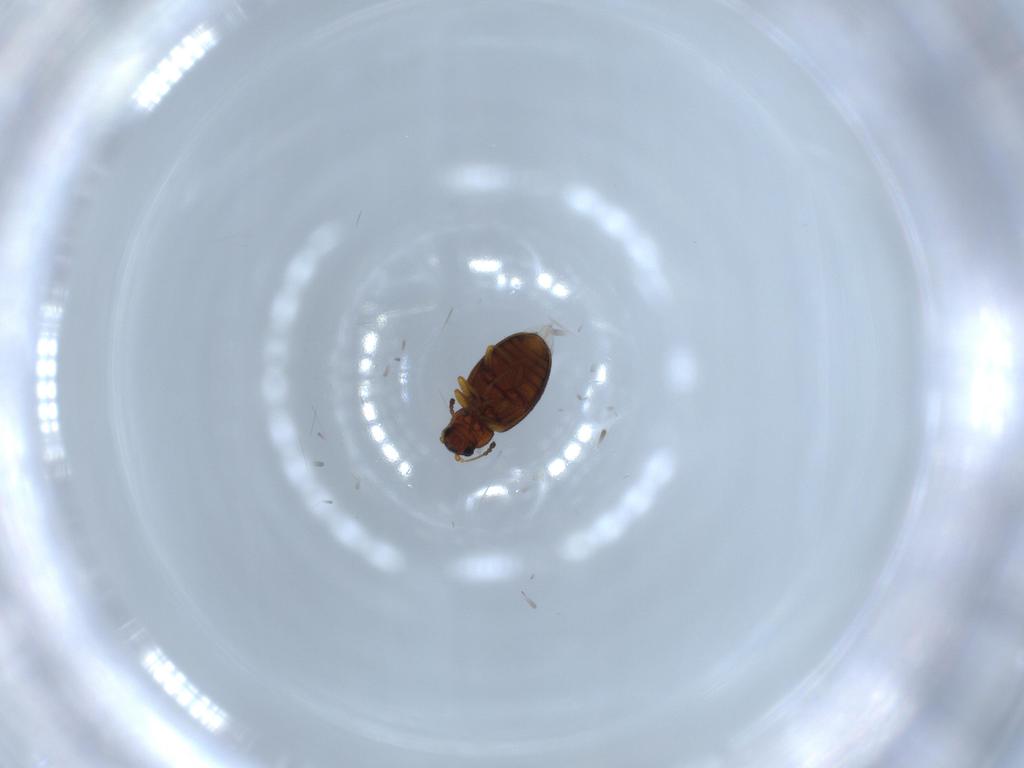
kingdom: Animalia
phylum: Arthropoda
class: Insecta
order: Coleoptera
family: Latridiidae
